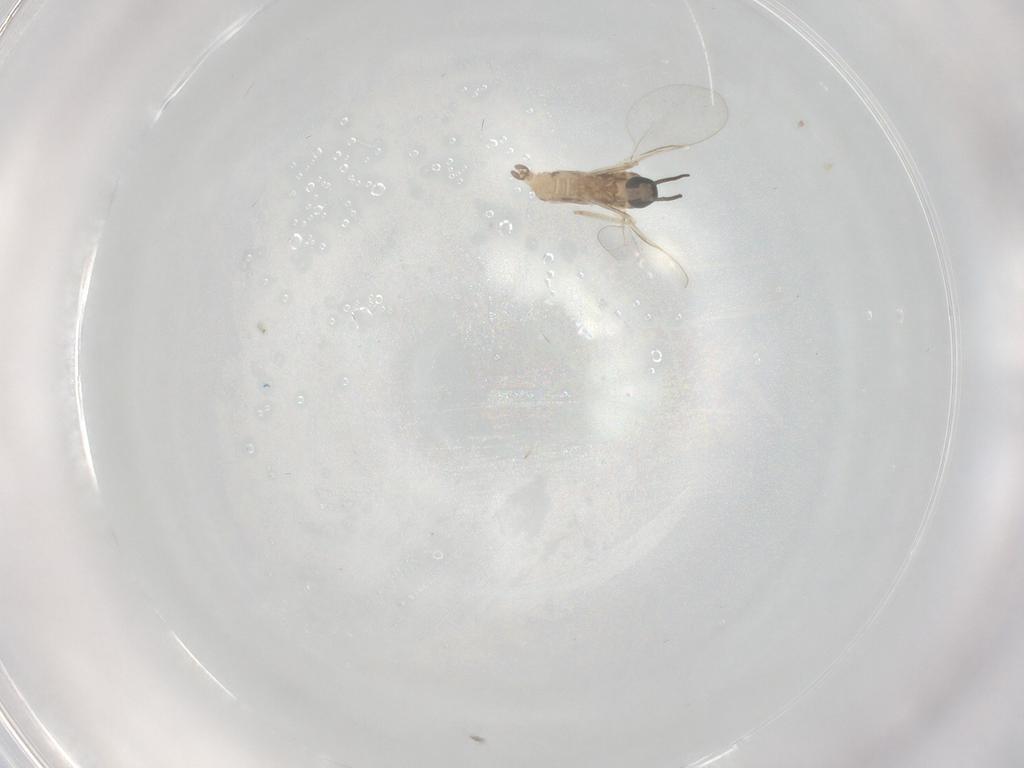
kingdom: Animalia
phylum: Arthropoda
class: Insecta
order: Diptera
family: Cecidomyiidae
